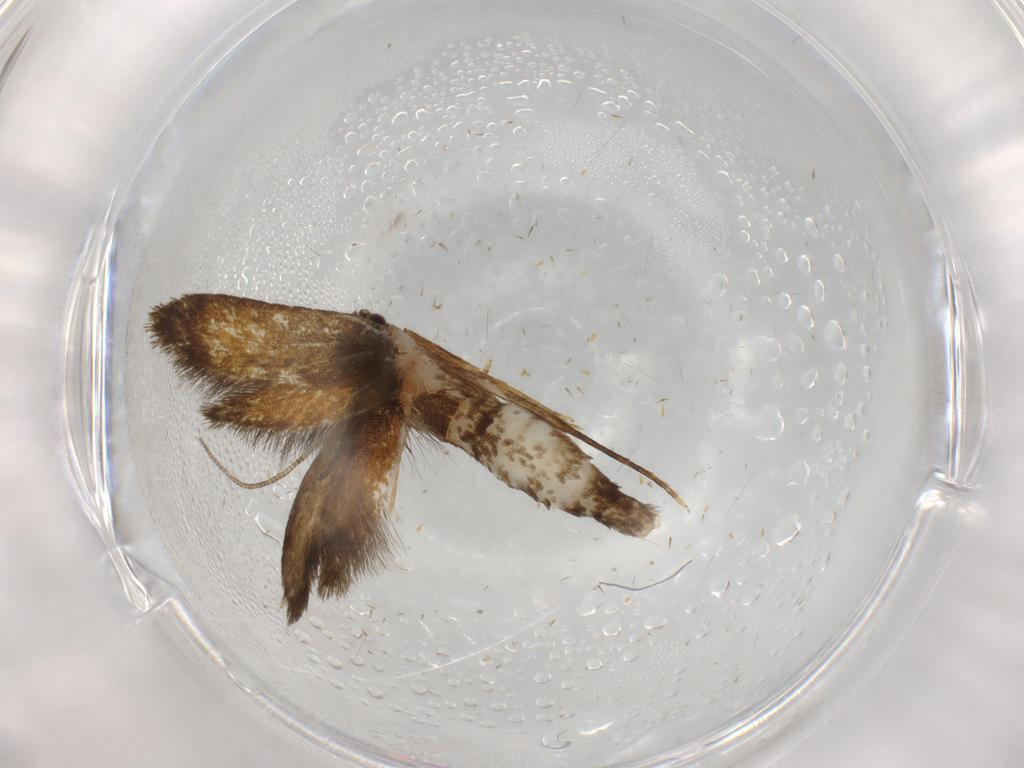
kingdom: Animalia
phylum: Arthropoda
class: Insecta
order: Lepidoptera
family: Tineidae
